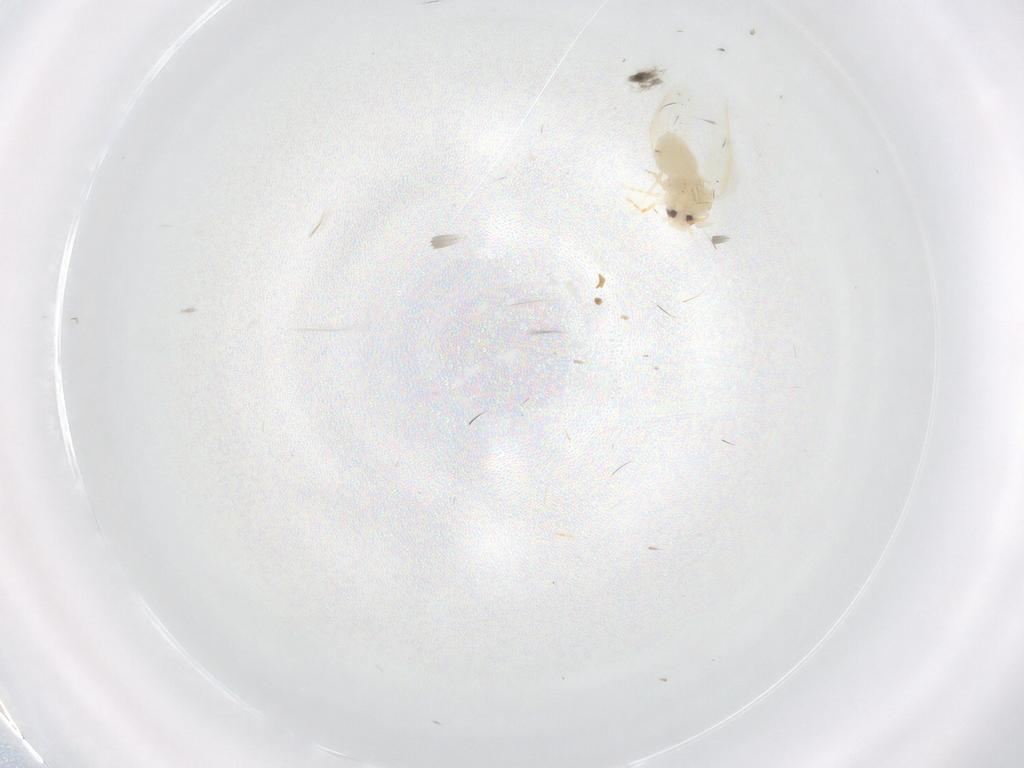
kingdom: Animalia
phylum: Arthropoda
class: Insecta
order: Hemiptera
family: Aleyrodidae
